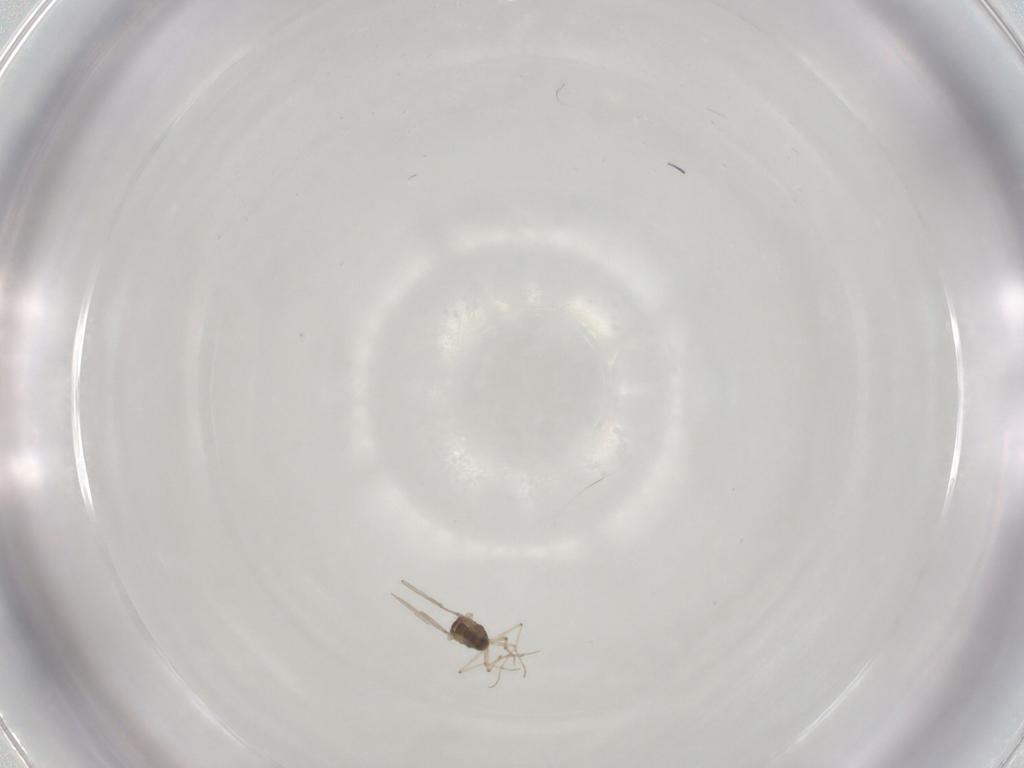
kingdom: Animalia
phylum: Arthropoda
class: Insecta
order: Diptera
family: Chironomidae
